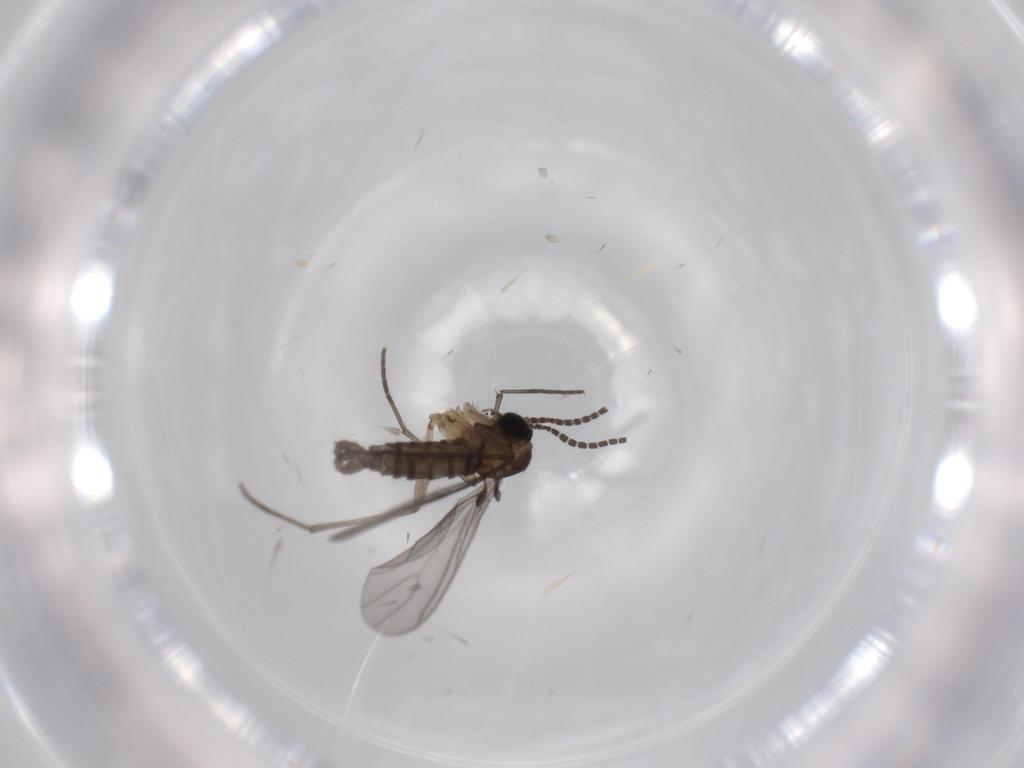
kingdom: Animalia
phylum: Arthropoda
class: Insecta
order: Diptera
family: Sciaridae
